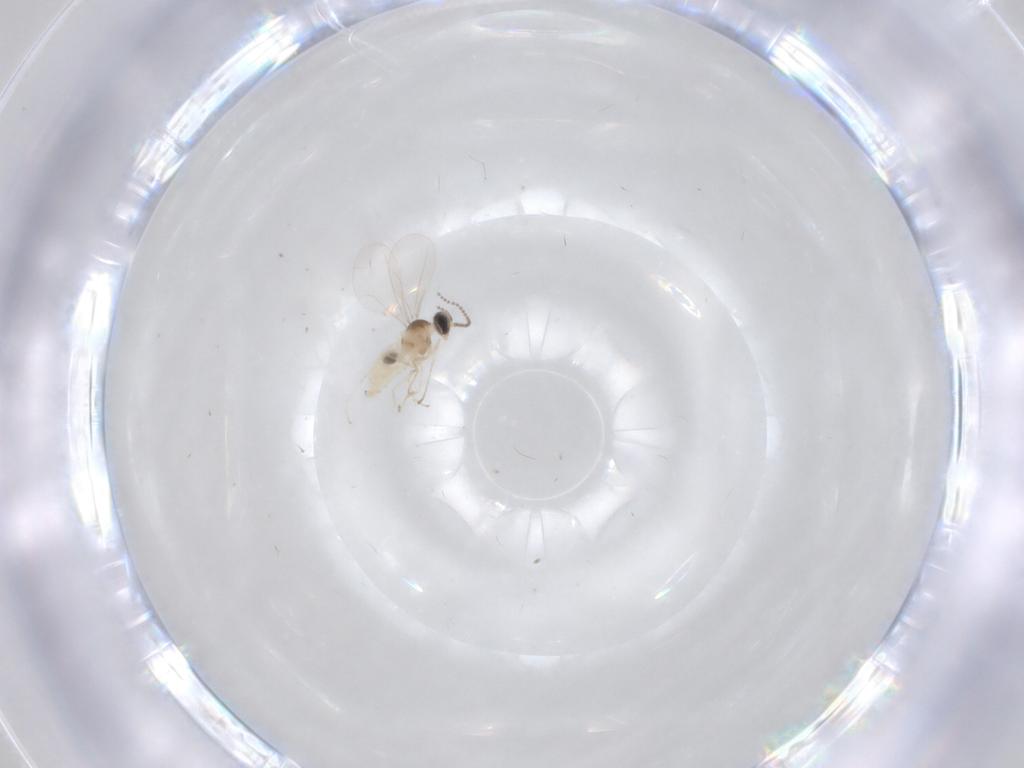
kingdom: Animalia
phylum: Arthropoda
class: Insecta
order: Diptera
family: Cecidomyiidae
